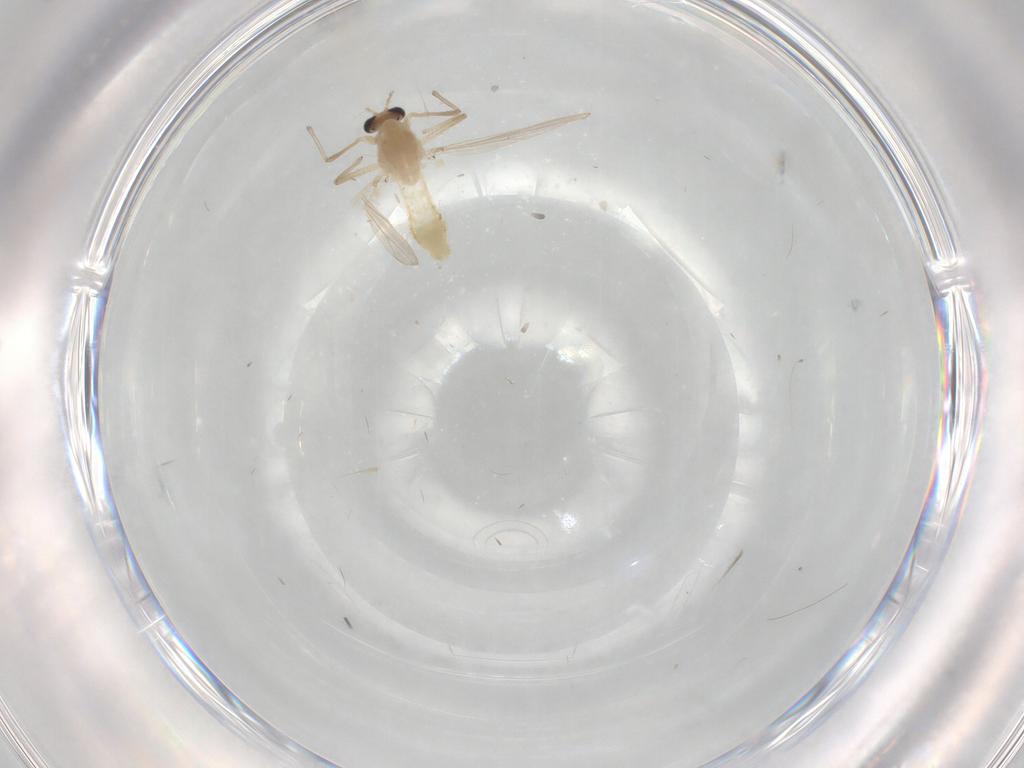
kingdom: Animalia
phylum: Arthropoda
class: Insecta
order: Diptera
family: Chironomidae
